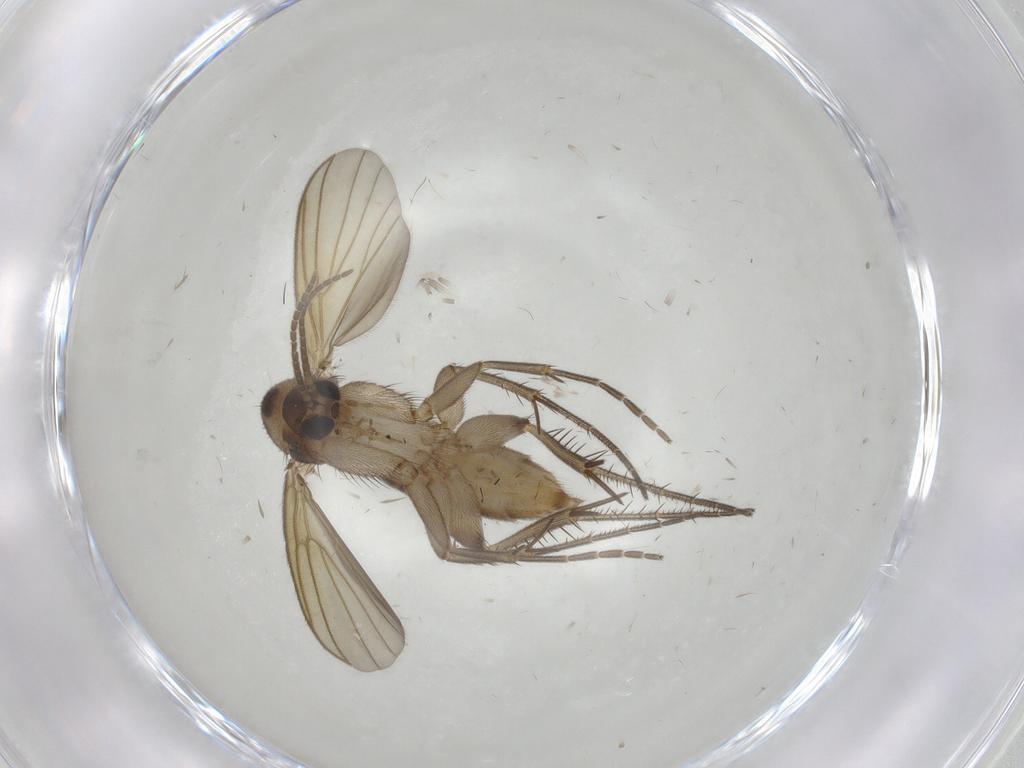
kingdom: Animalia
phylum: Arthropoda
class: Insecta
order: Diptera
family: Mycetophilidae
